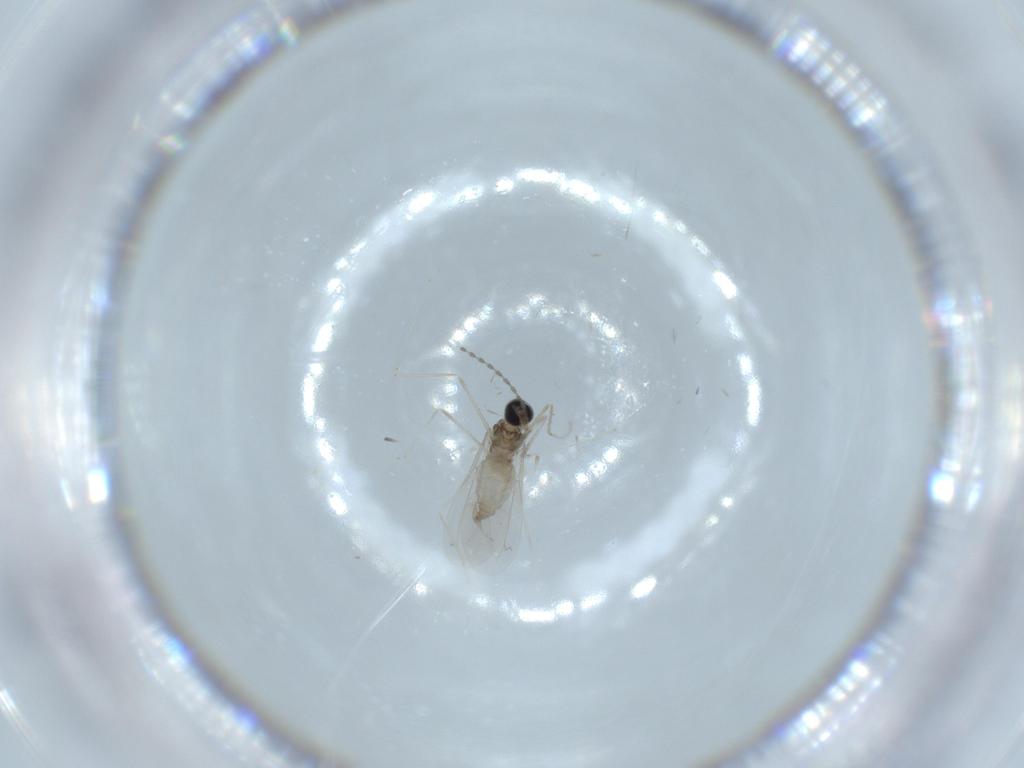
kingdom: Animalia
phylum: Arthropoda
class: Insecta
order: Diptera
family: Cecidomyiidae
